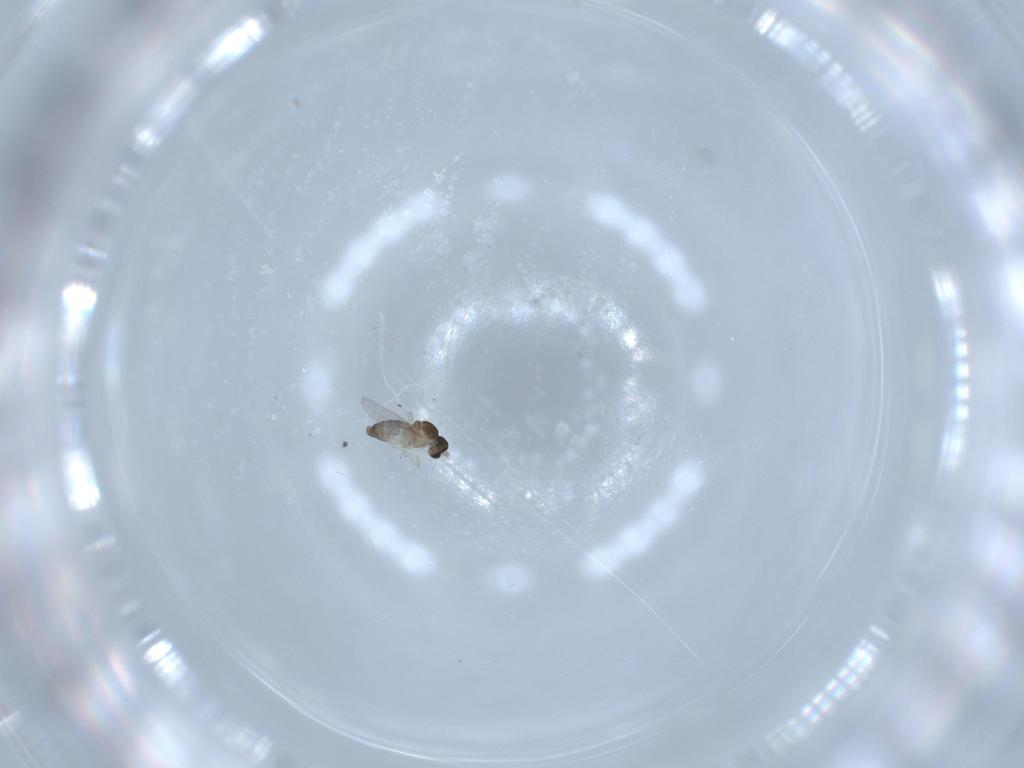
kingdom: Animalia
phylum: Arthropoda
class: Insecta
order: Diptera
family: Cecidomyiidae
